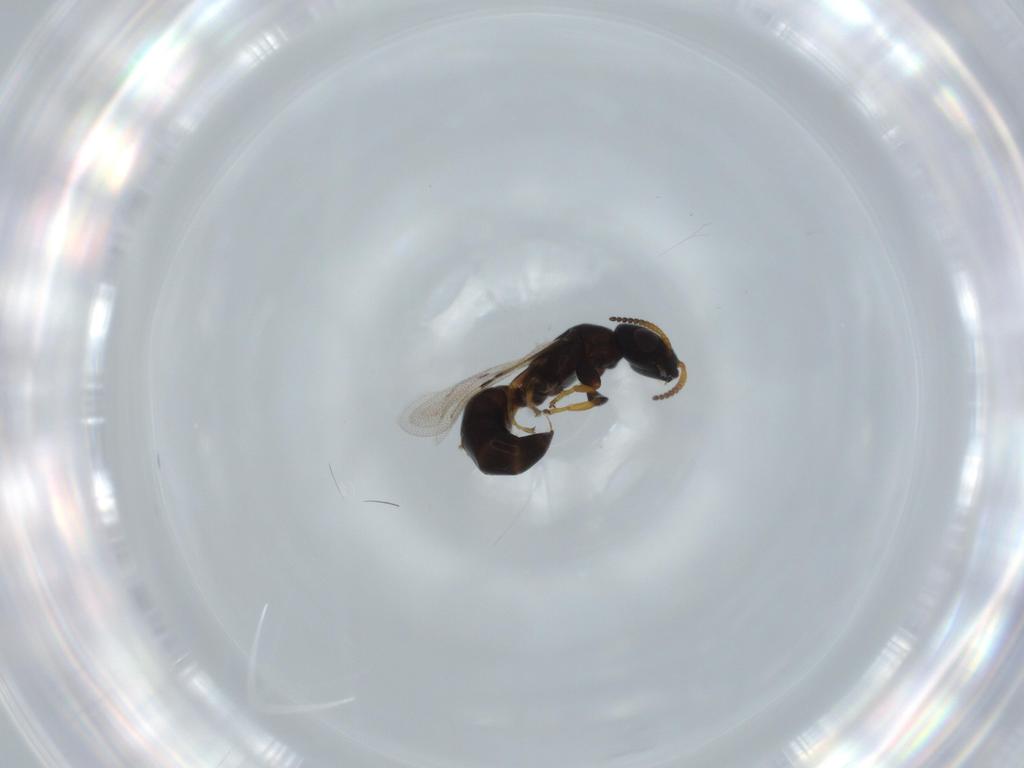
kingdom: Animalia
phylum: Arthropoda
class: Insecta
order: Hymenoptera
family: Bethylidae
